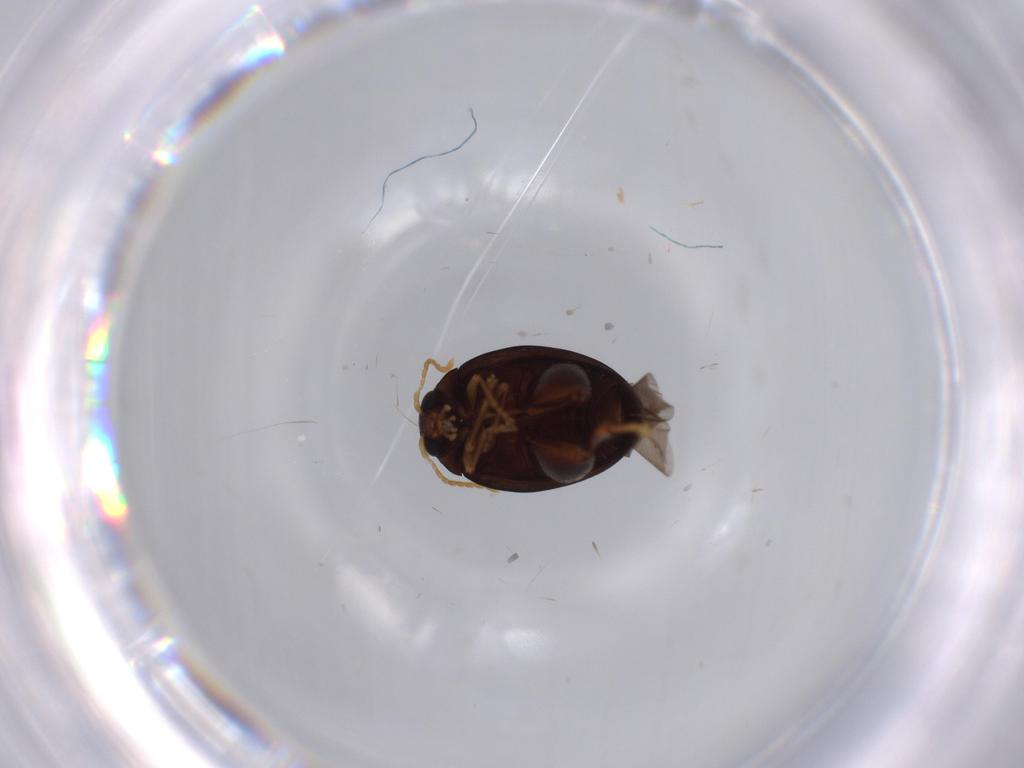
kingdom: Animalia
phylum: Arthropoda
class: Insecta
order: Coleoptera
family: Chrysomelidae
